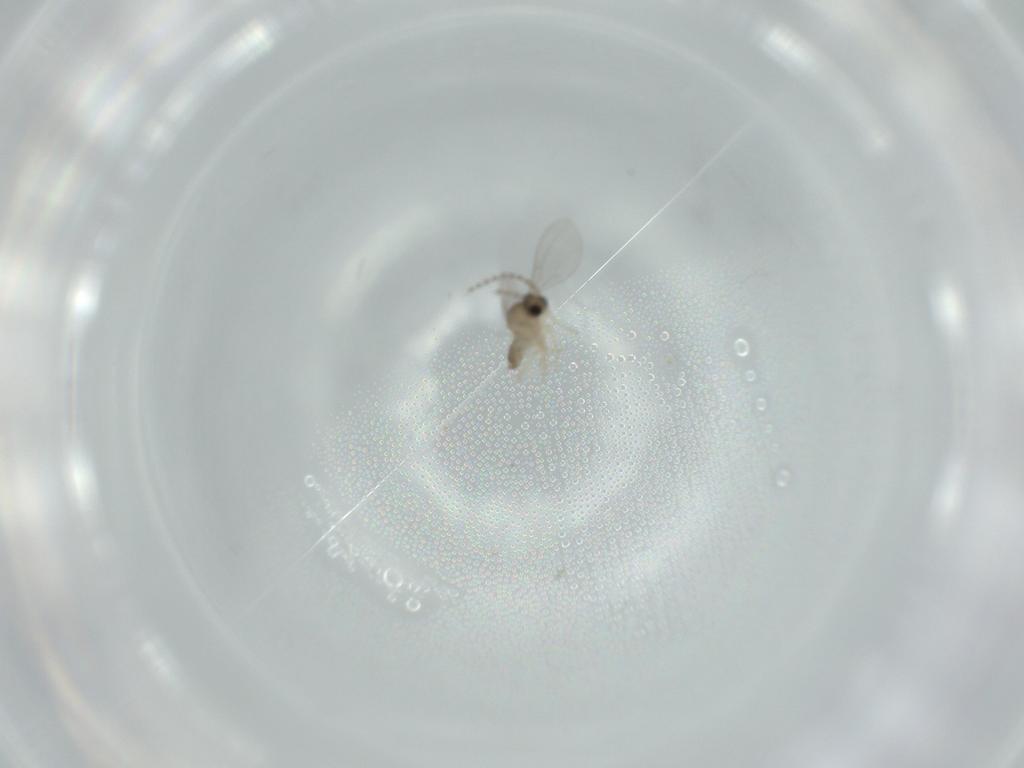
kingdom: Animalia
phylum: Arthropoda
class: Insecta
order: Diptera
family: Cecidomyiidae
